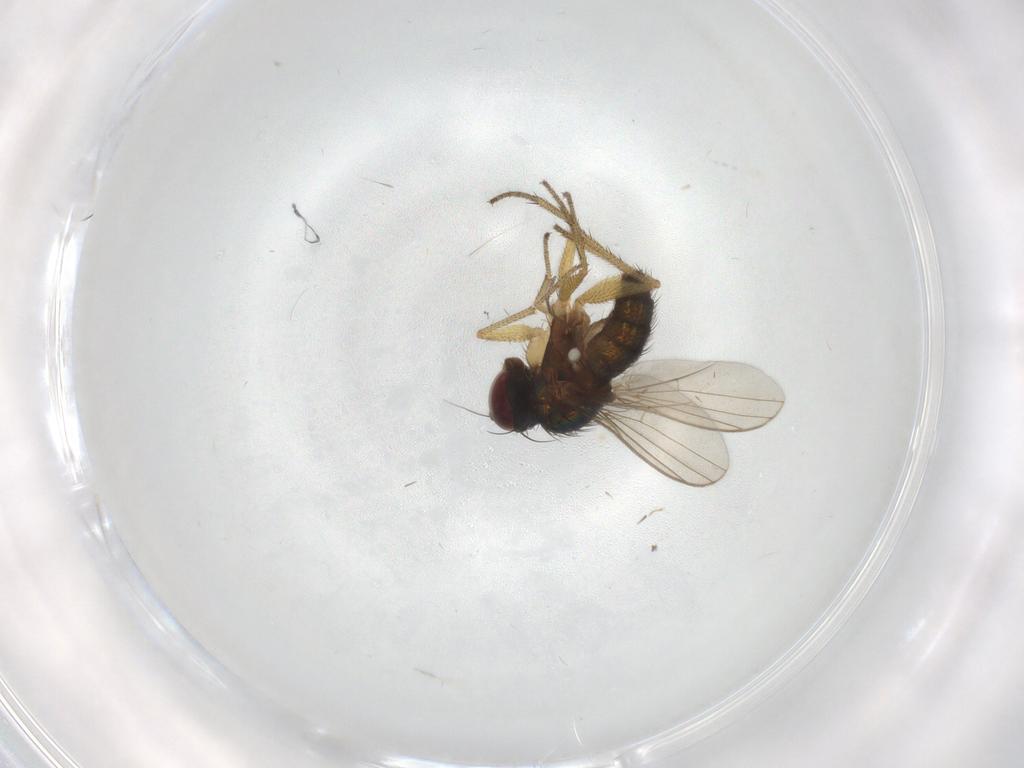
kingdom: Animalia
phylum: Arthropoda
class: Insecta
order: Diptera
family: Dolichopodidae
